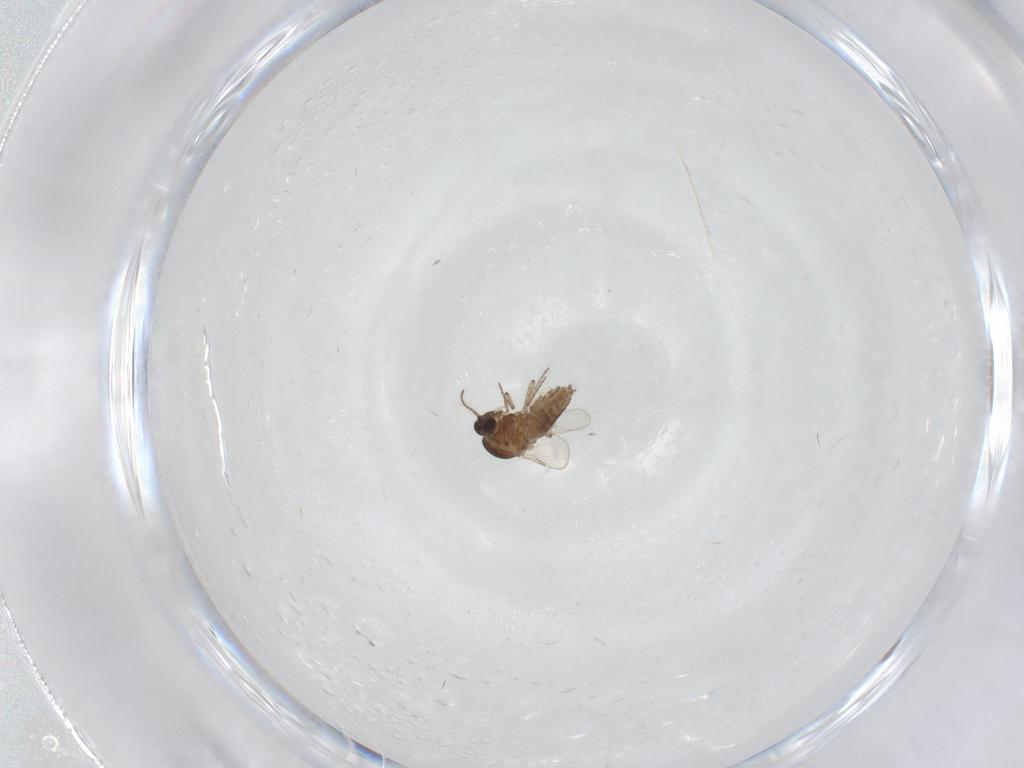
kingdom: Animalia
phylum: Arthropoda
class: Insecta
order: Diptera
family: Ceratopogonidae
